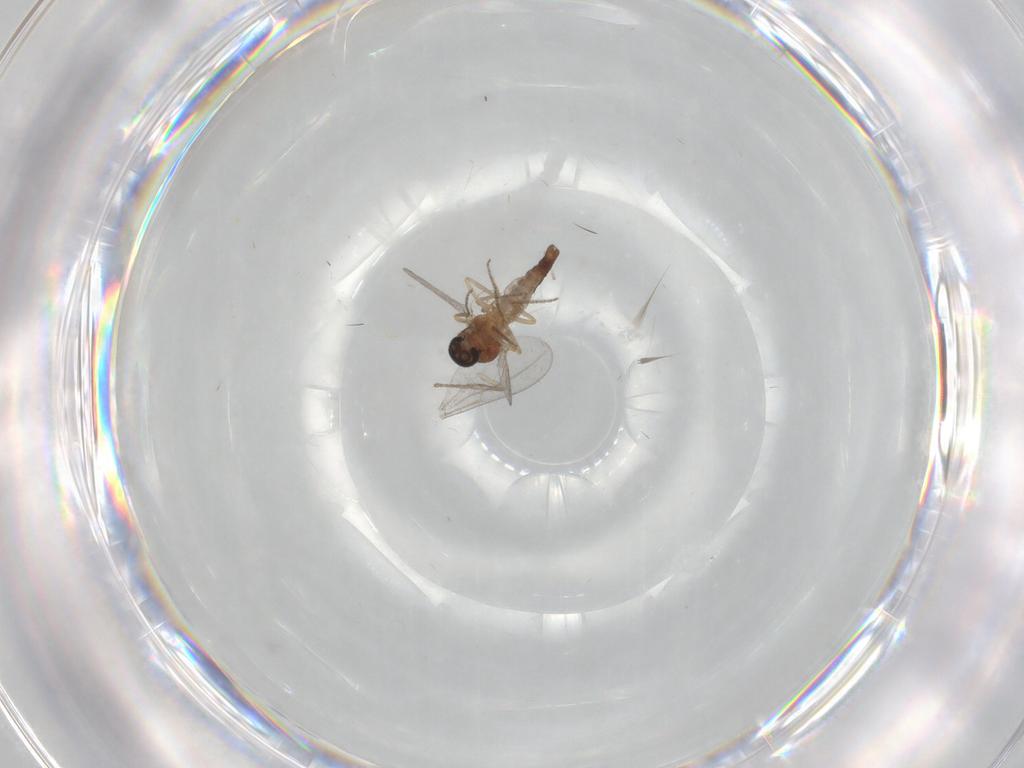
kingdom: Animalia
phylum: Arthropoda
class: Insecta
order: Diptera
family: Ceratopogonidae
